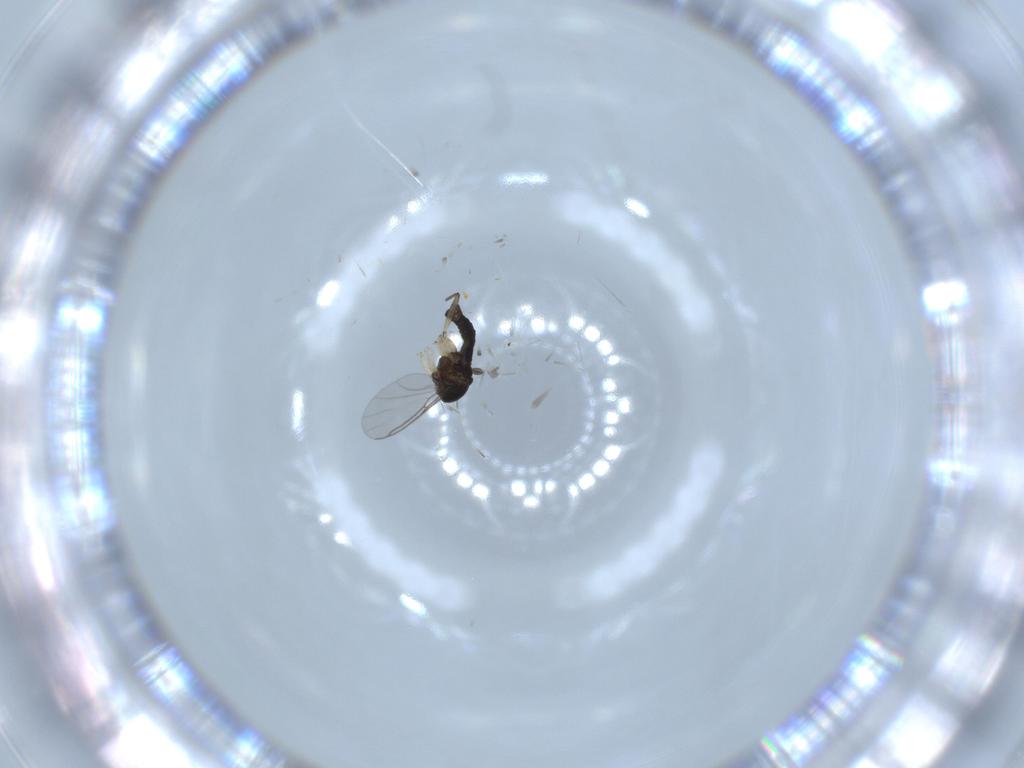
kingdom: Animalia
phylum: Arthropoda
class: Insecta
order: Diptera
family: Sciaridae
